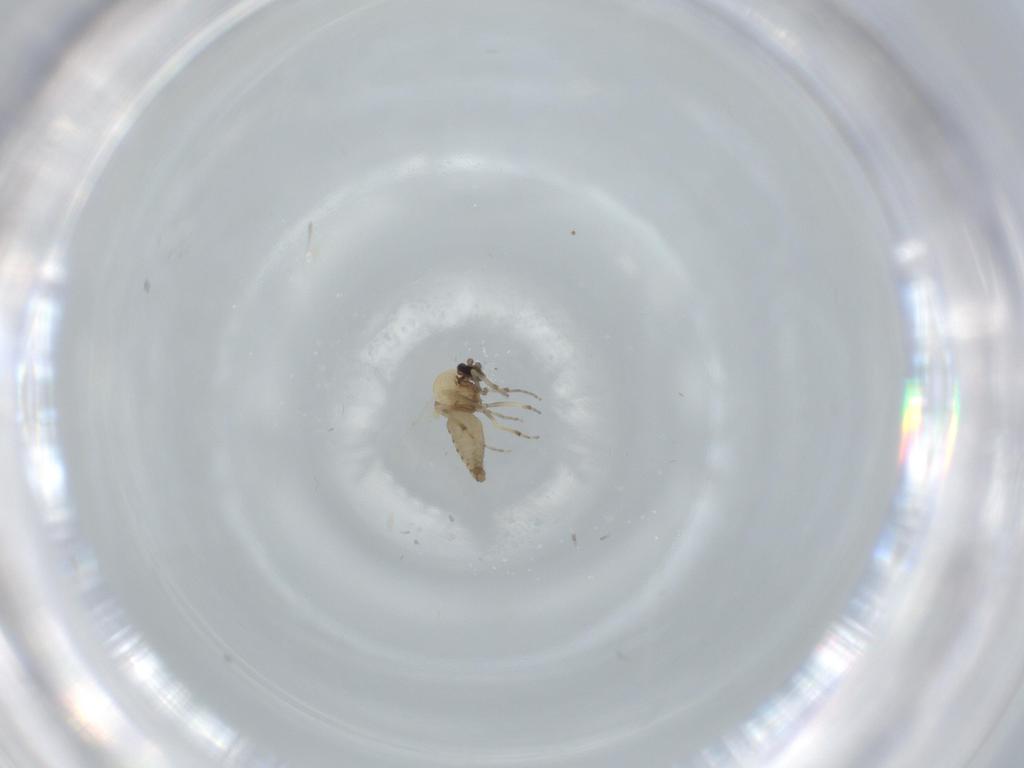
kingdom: Animalia
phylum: Arthropoda
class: Insecta
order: Diptera
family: Ceratopogonidae
